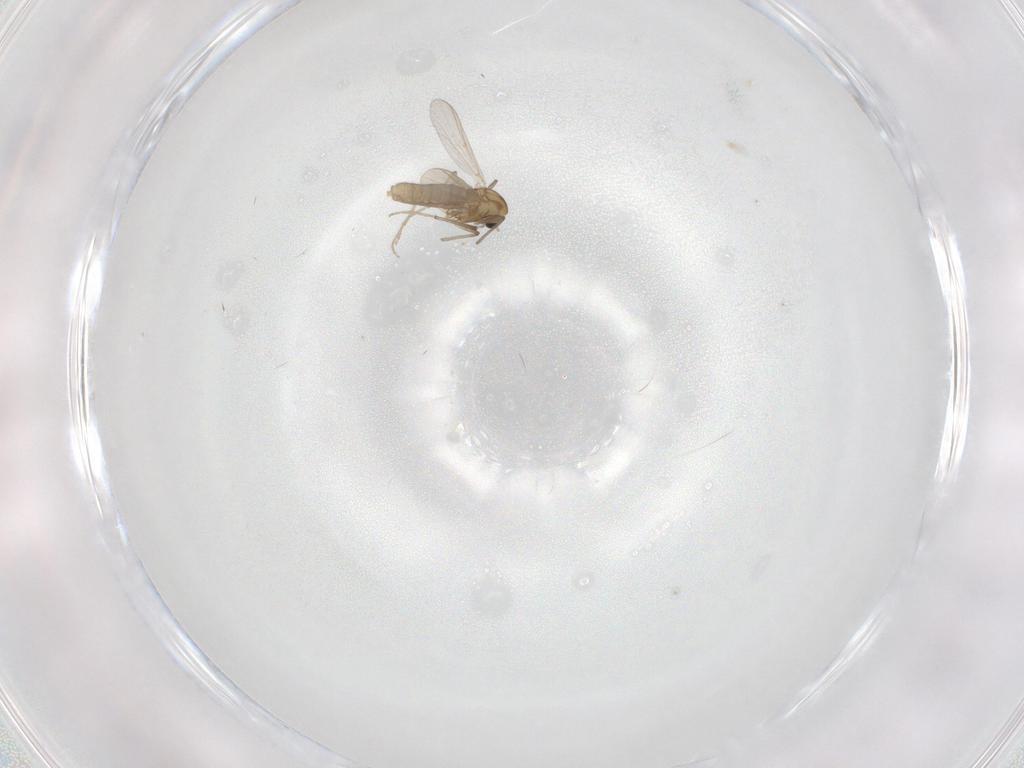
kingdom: Animalia
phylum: Arthropoda
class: Insecta
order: Diptera
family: Chironomidae
